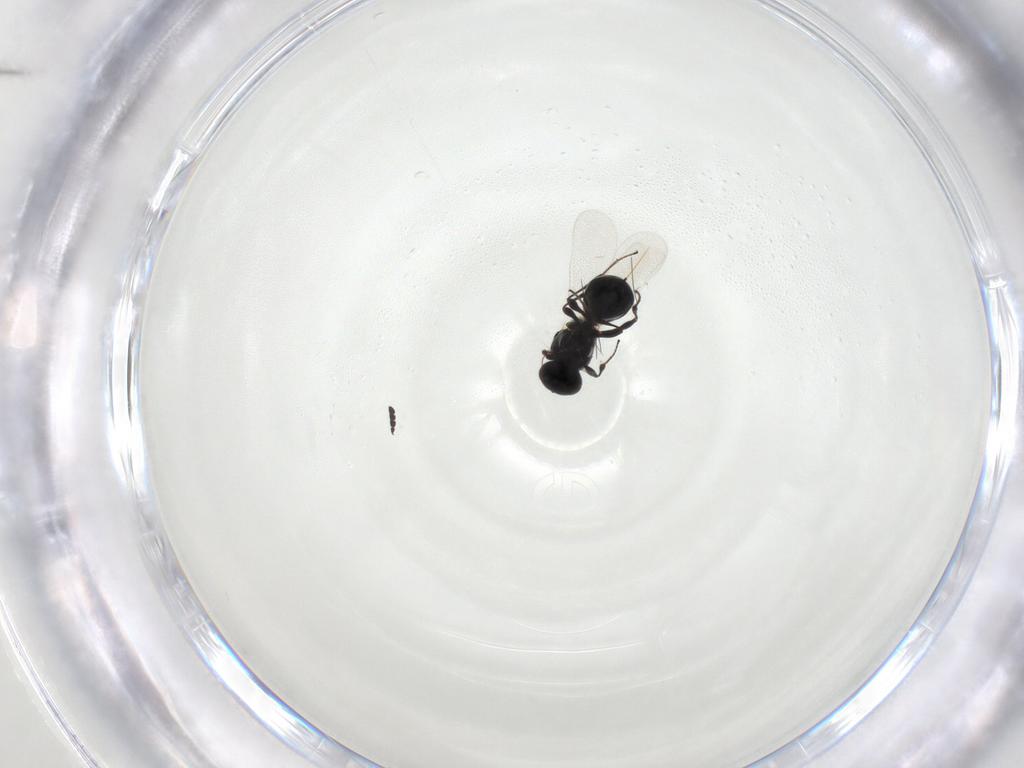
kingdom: Animalia
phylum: Arthropoda
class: Insecta
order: Hymenoptera
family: Platygastridae
